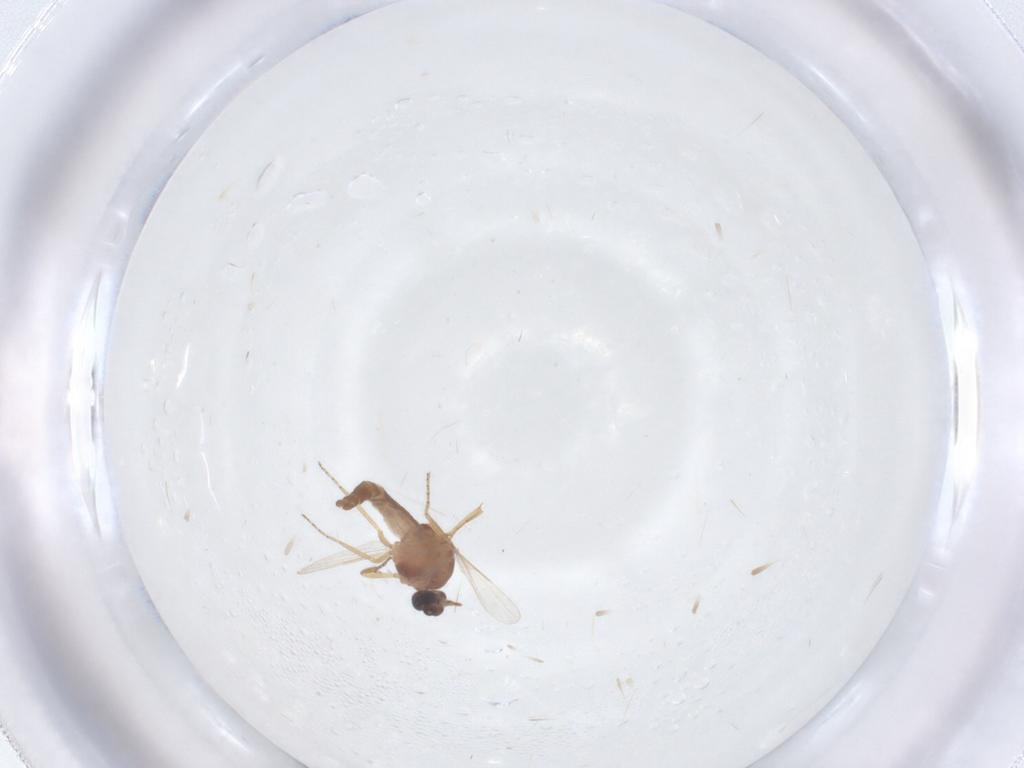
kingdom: Animalia
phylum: Arthropoda
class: Insecta
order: Diptera
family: Ceratopogonidae
